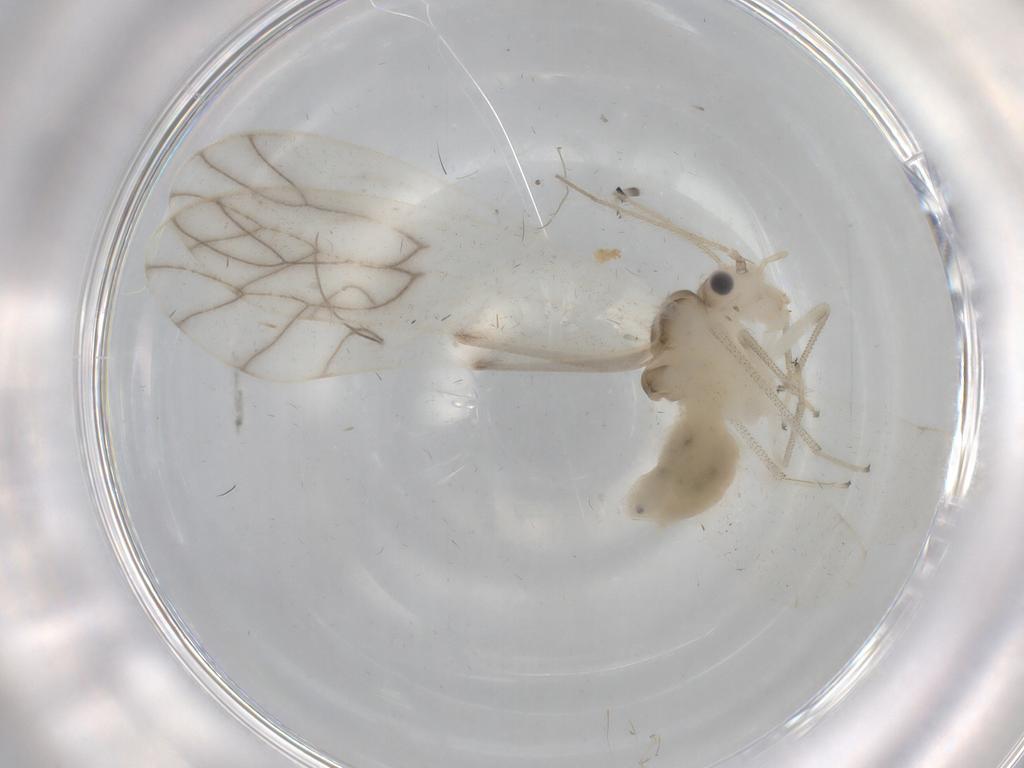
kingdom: Animalia
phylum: Arthropoda
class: Insecta
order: Psocodea
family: Caeciliusidae
